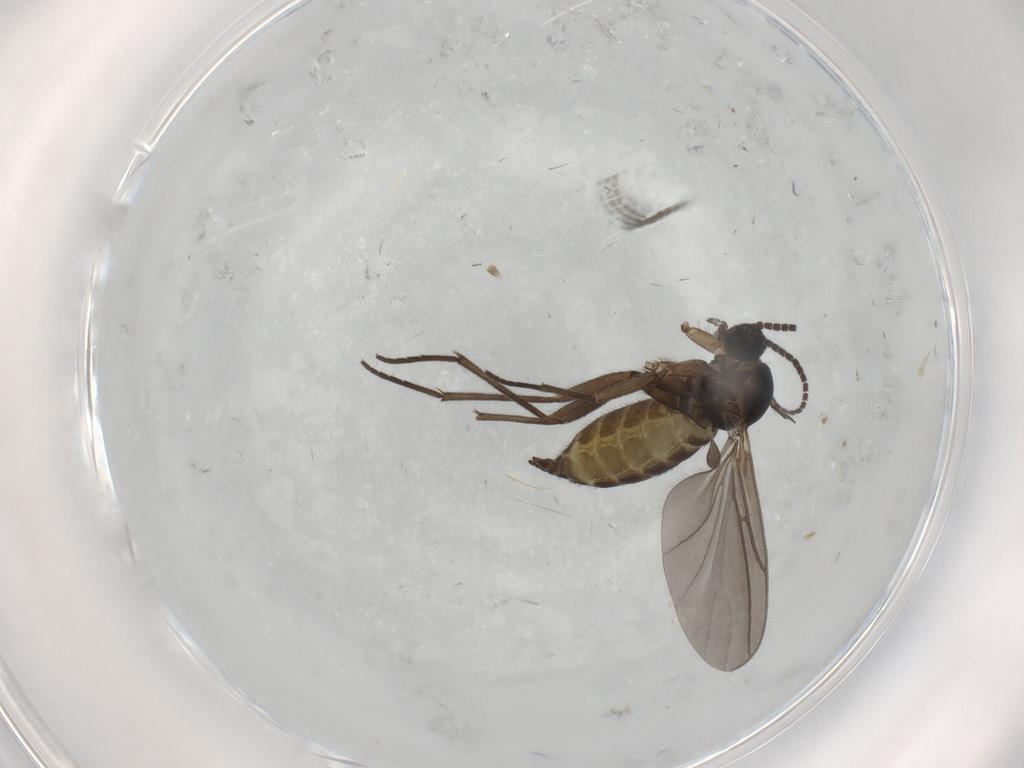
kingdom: Animalia
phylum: Arthropoda
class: Insecta
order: Diptera
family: Sciaridae
